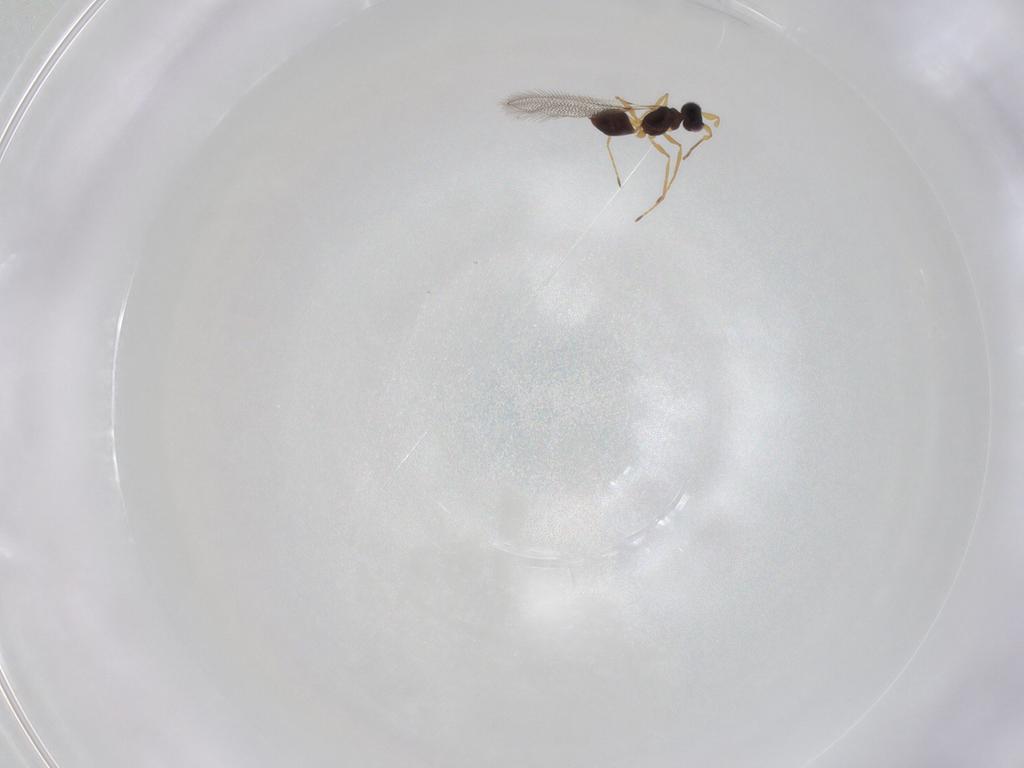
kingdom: Animalia
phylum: Arthropoda
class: Insecta
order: Hymenoptera
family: Mymaridae
